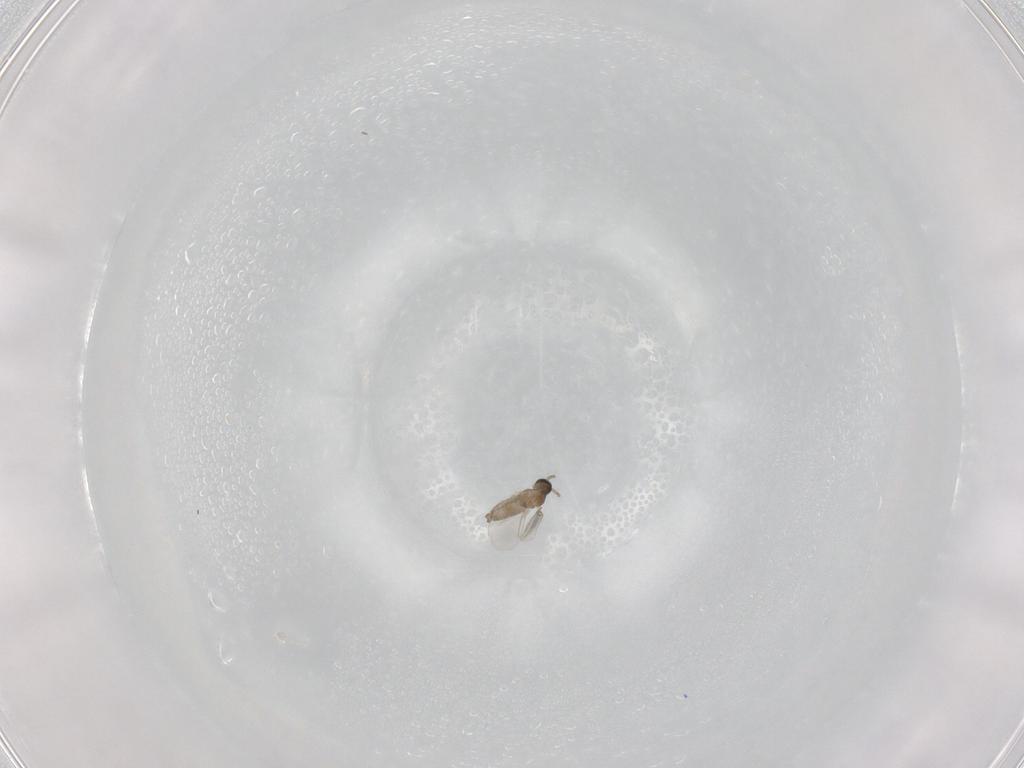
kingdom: Animalia
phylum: Arthropoda
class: Insecta
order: Diptera
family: Cecidomyiidae
